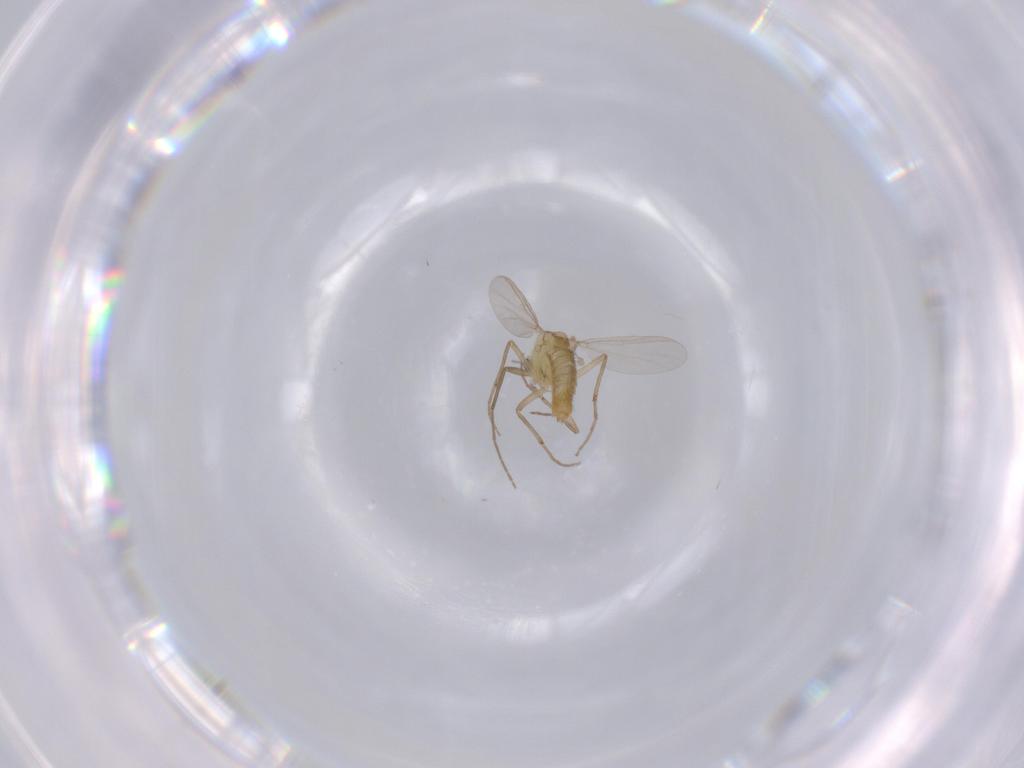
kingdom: Animalia
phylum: Arthropoda
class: Insecta
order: Diptera
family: Chironomidae
